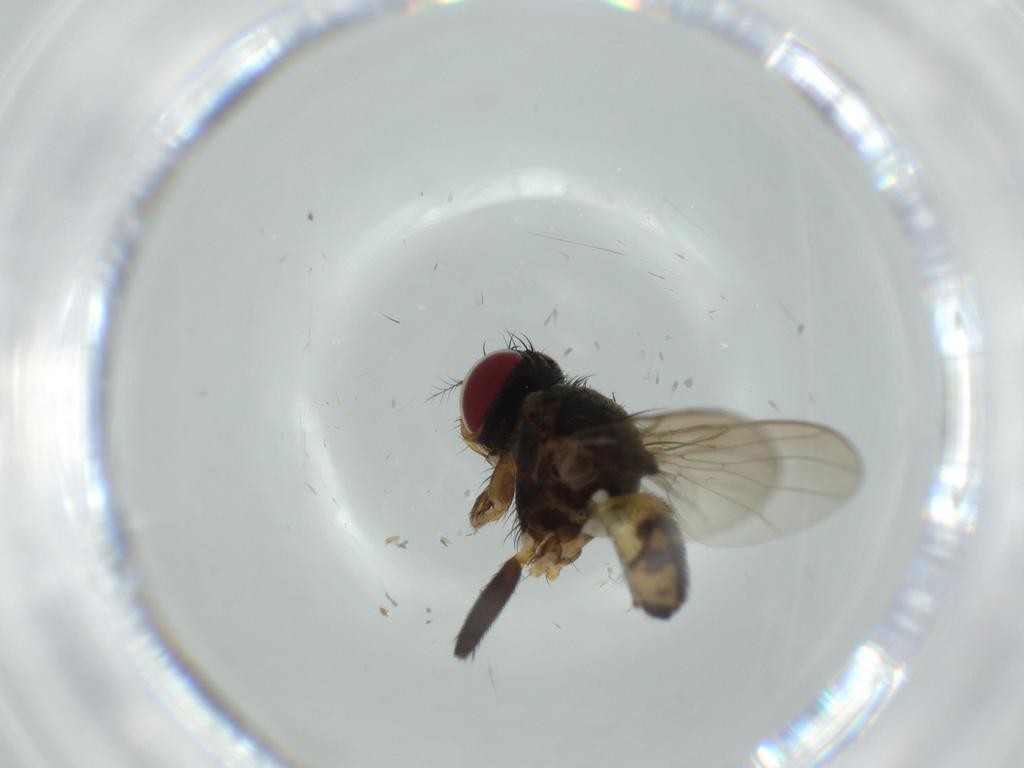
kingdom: Animalia
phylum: Arthropoda
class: Insecta
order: Diptera
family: Anthomyiidae
